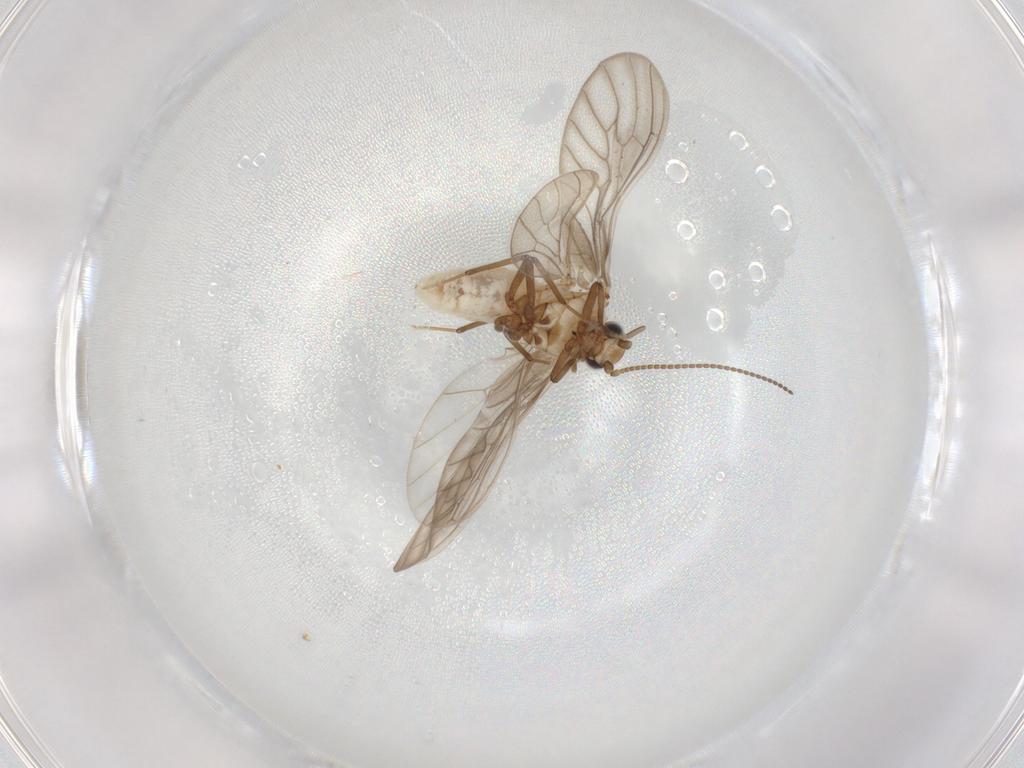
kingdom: Animalia
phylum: Arthropoda
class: Insecta
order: Neuroptera
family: Coniopterygidae
